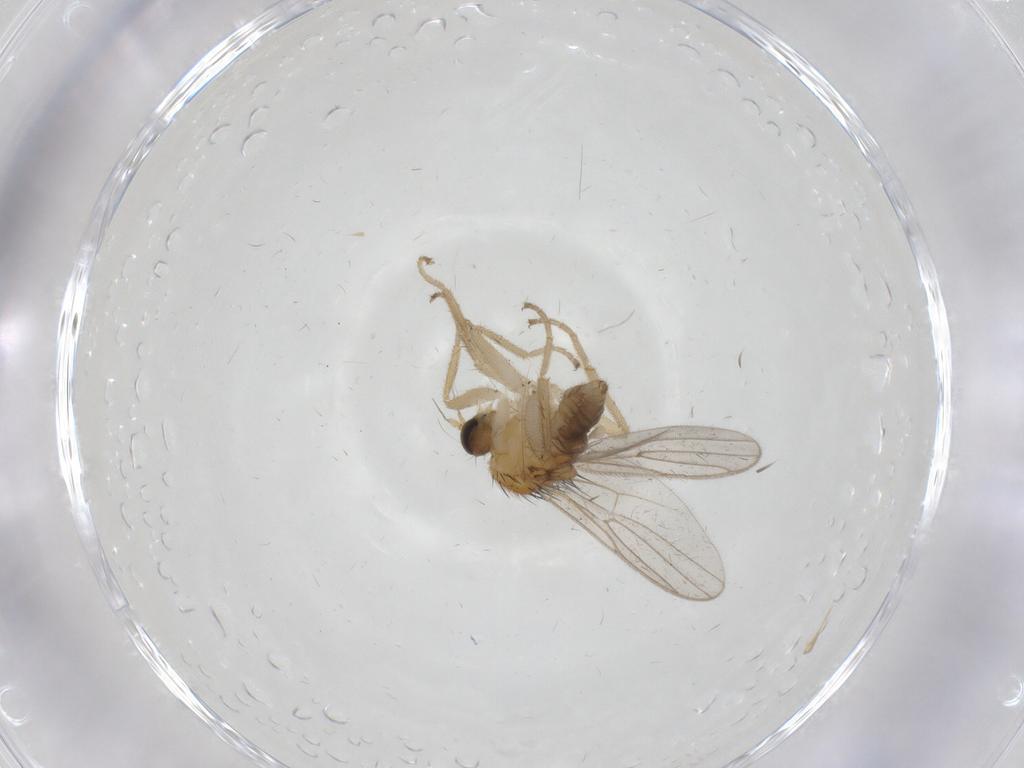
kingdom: Animalia
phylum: Arthropoda
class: Insecta
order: Diptera
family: Hybotidae
